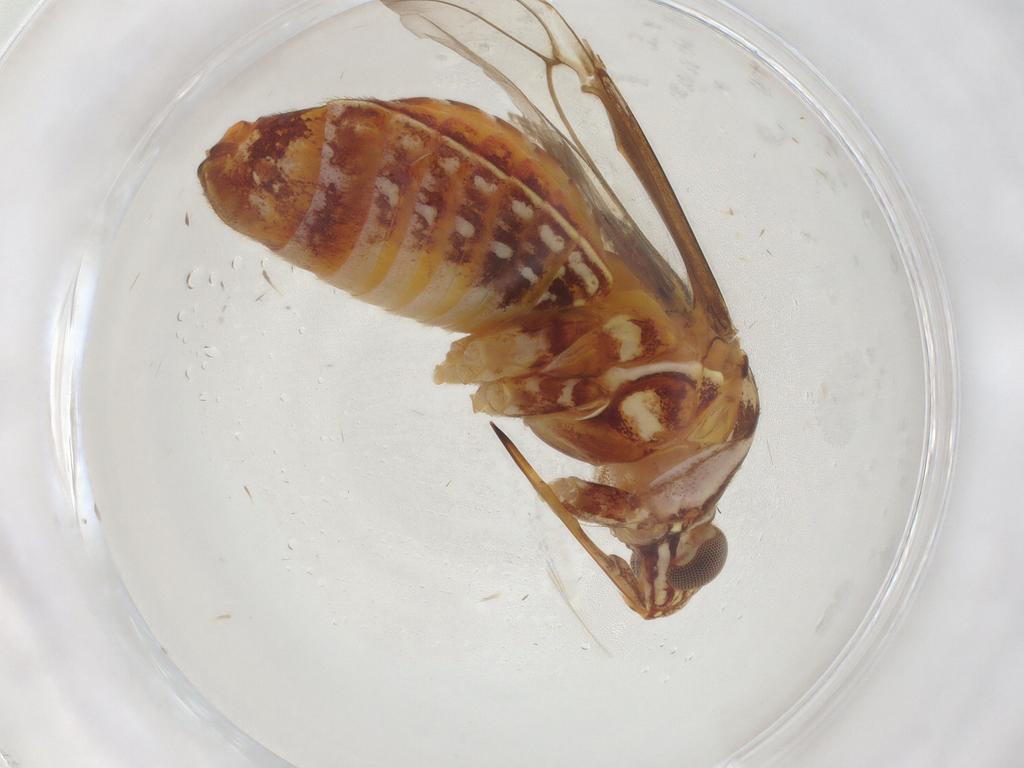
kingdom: Animalia
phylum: Arthropoda
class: Insecta
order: Hemiptera
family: Miridae
